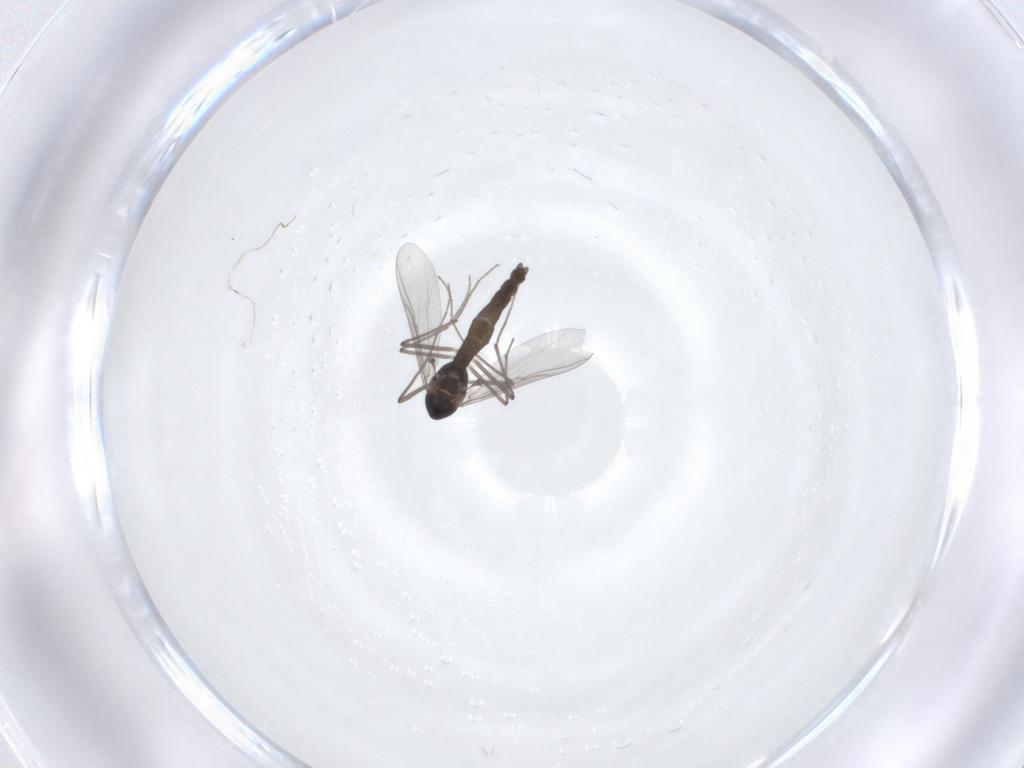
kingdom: Animalia
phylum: Arthropoda
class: Insecta
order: Diptera
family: Chironomidae
